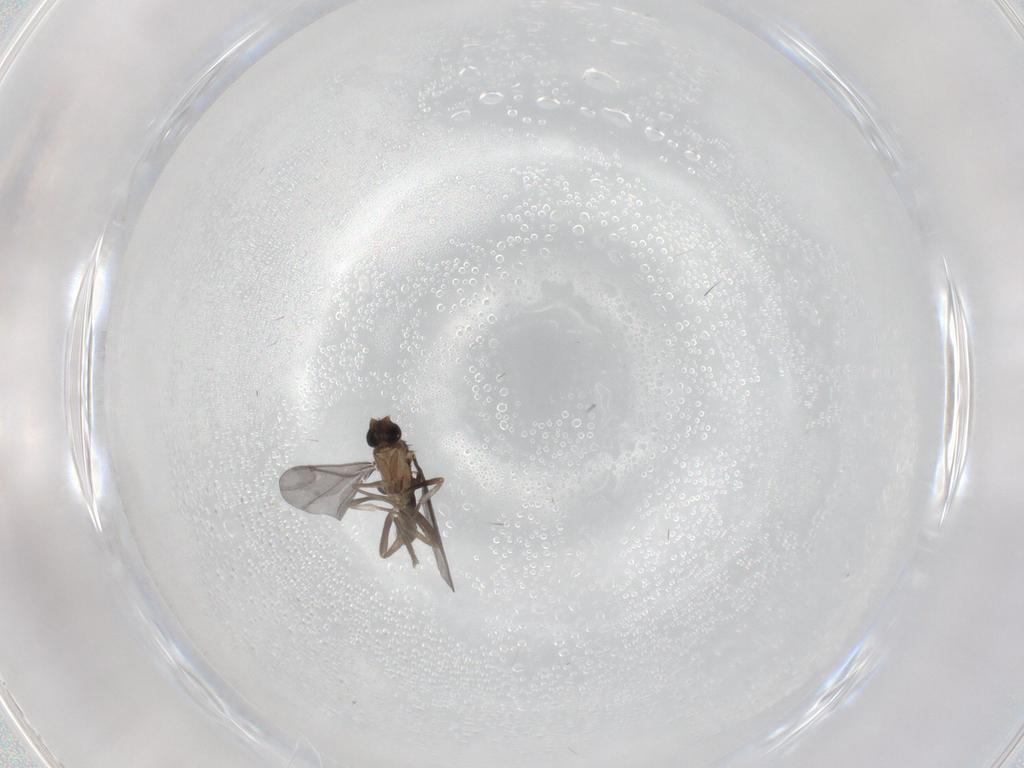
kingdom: Animalia
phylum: Arthropoda
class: Insecta
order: Diptera
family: Phoridae
